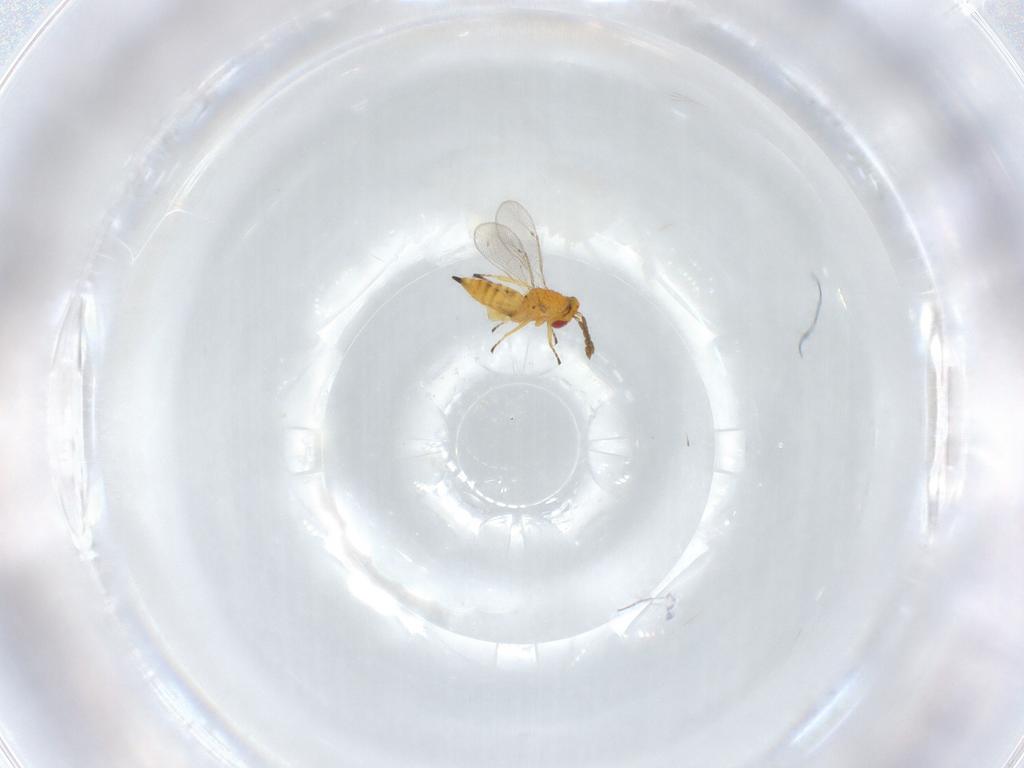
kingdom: Animalia
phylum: Arthropoda
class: Insecta
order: Hymenoptera
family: Eulophidae
